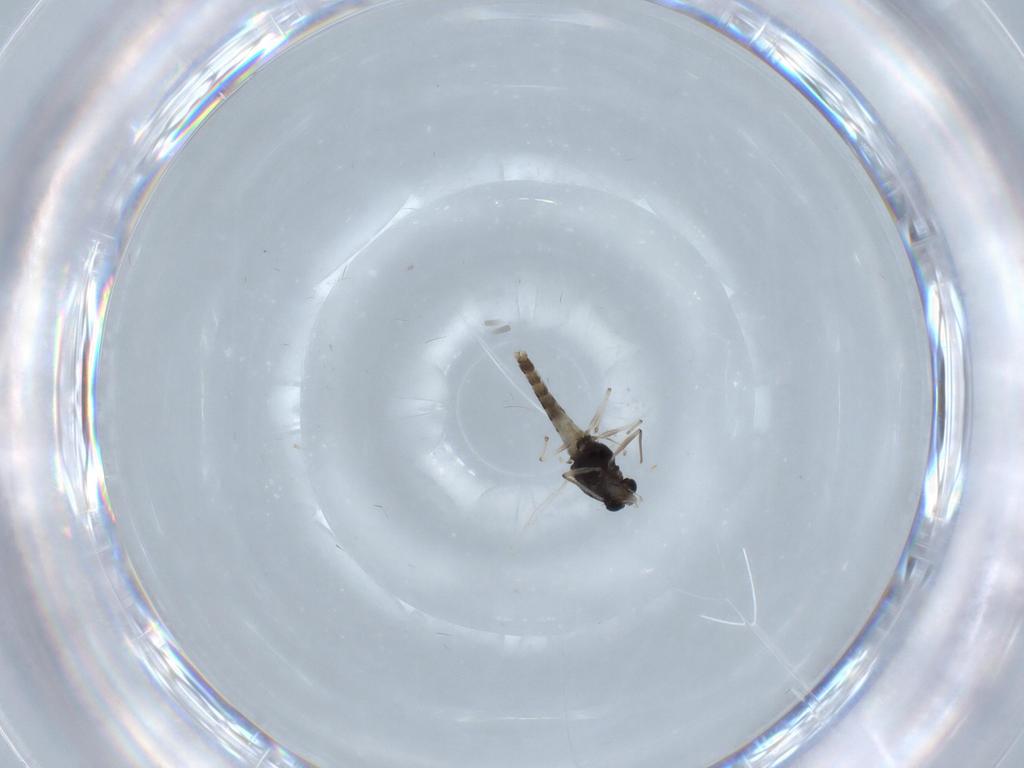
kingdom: Animalia
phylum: Arthropoda
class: Insecta
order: Diptera
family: Chironomidae
